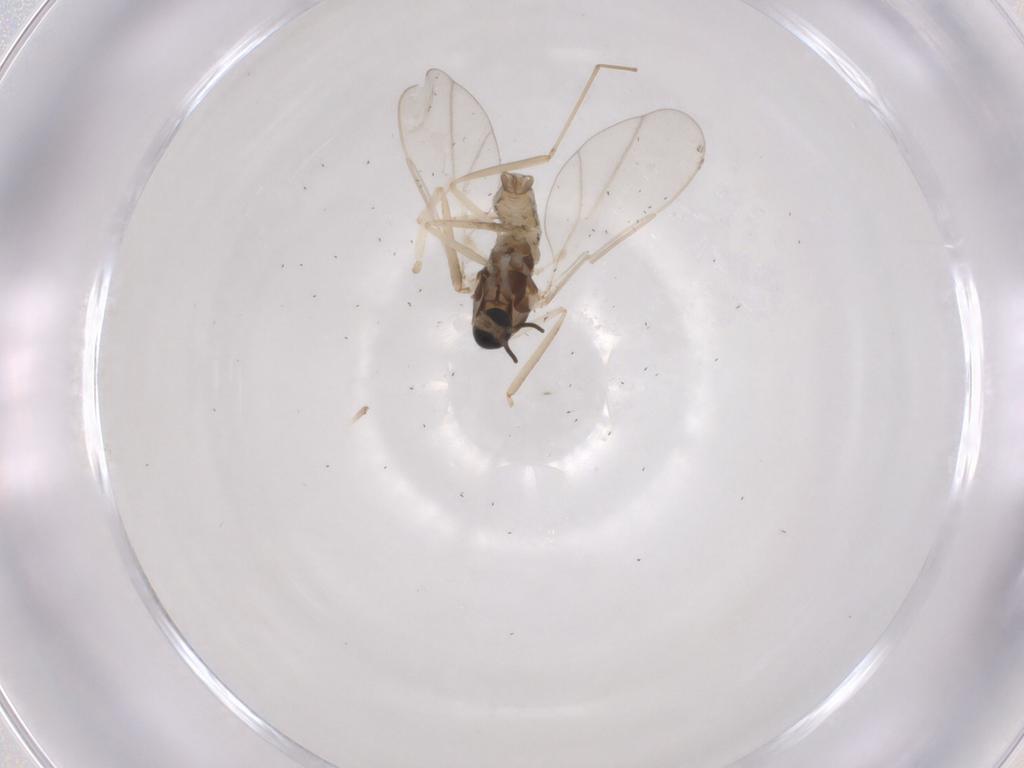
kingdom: Animalia
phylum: Arthropoda
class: Insecta
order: Diptera
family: Cecidomyiidae
